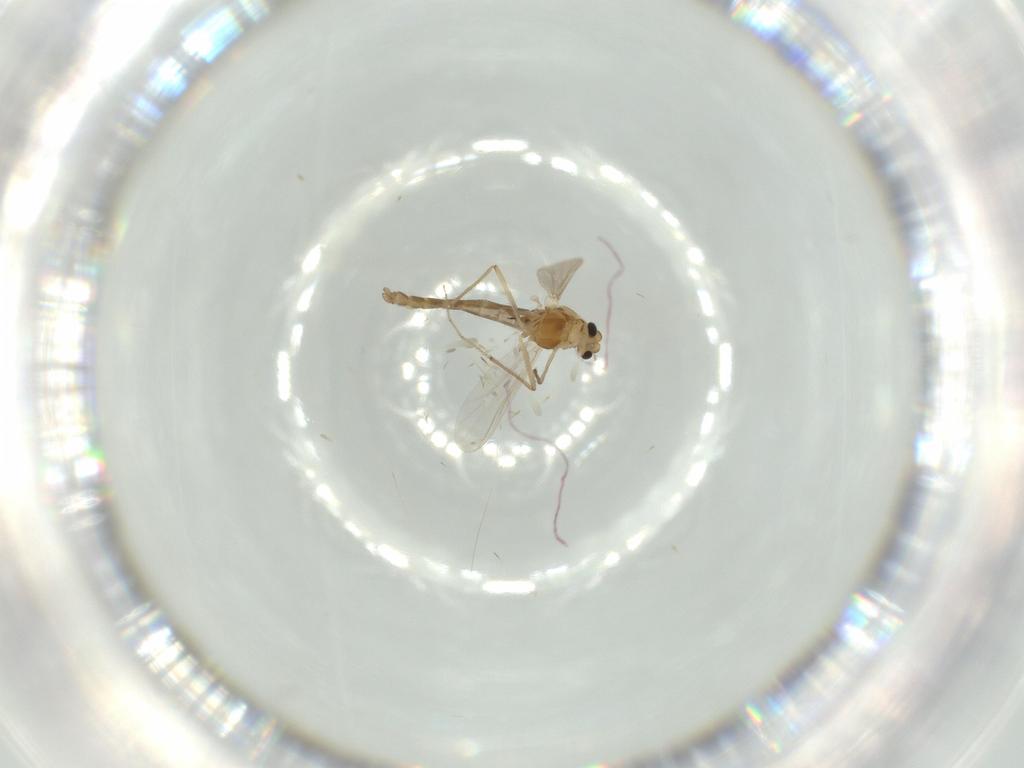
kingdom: Animalia
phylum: Arthropoda
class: Insecta
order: Diptera
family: Chironomidae
